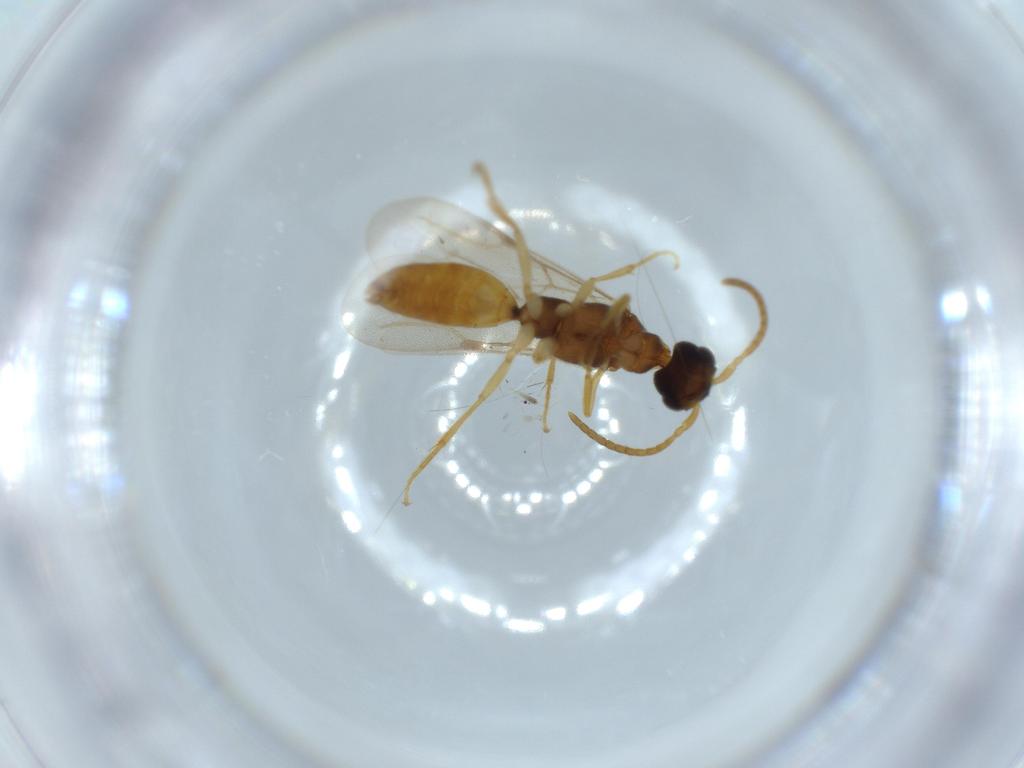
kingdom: Animalia
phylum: Arthropoda
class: Insecta
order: Hymenoptera
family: Bethylidae
